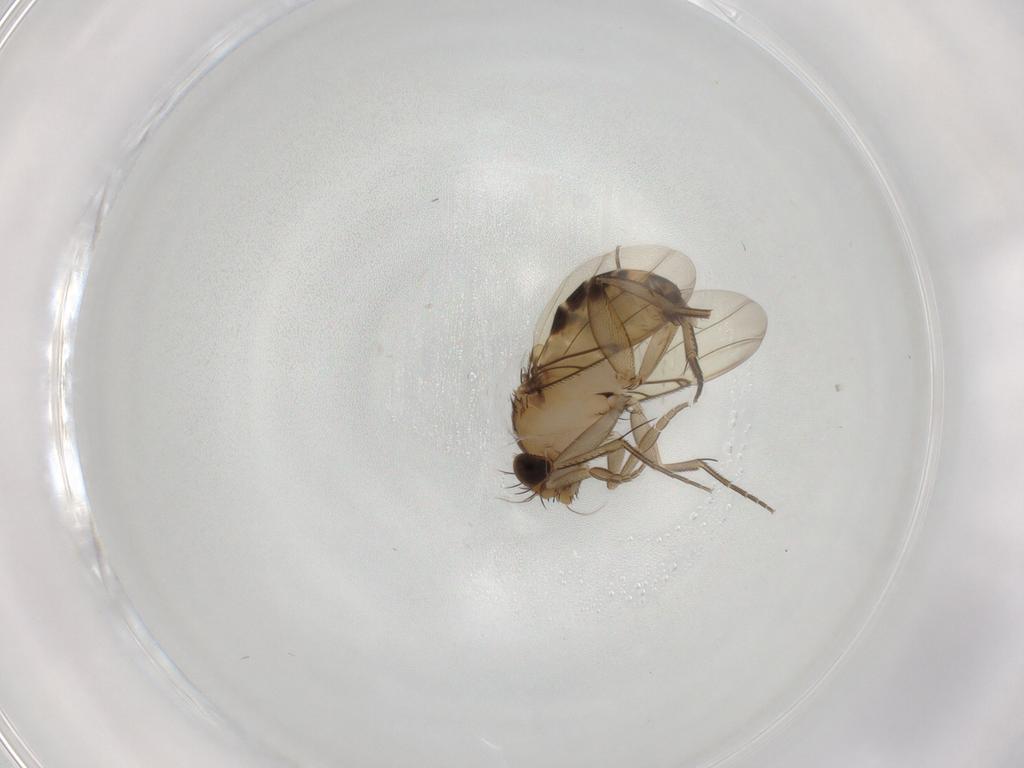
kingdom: Animalia
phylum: Arthropoda
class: Insecta
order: Diptera
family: Phoridae
